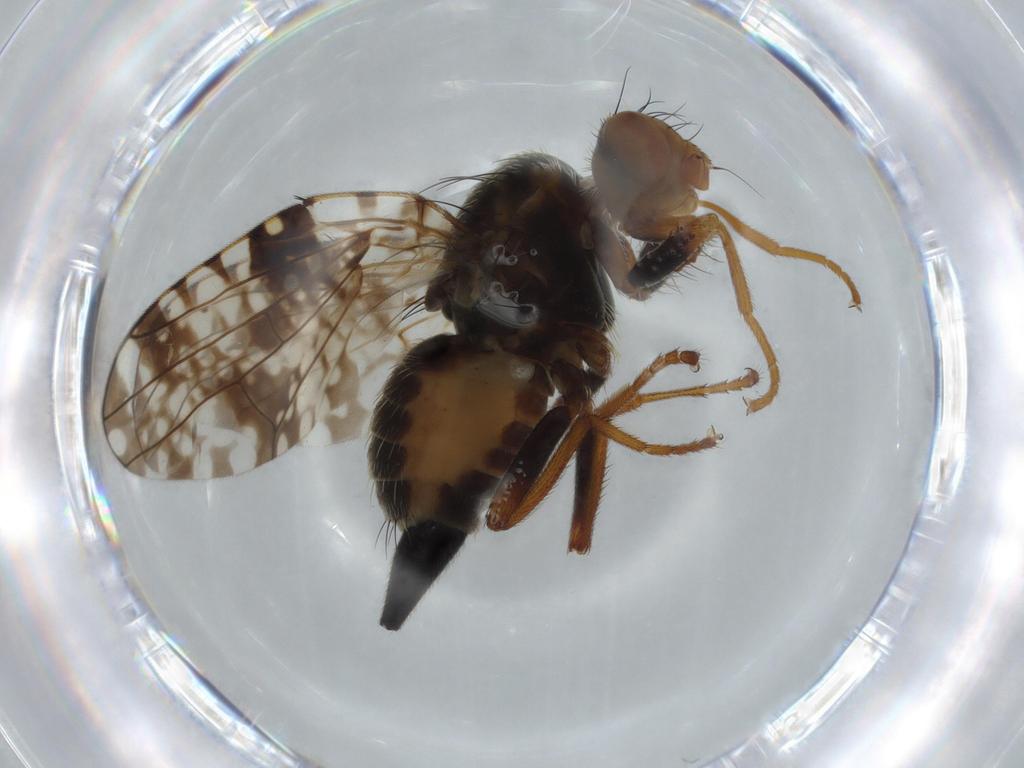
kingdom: Animalia
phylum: Arthropoda
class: Insecta
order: Diptera
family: Tephritidae
